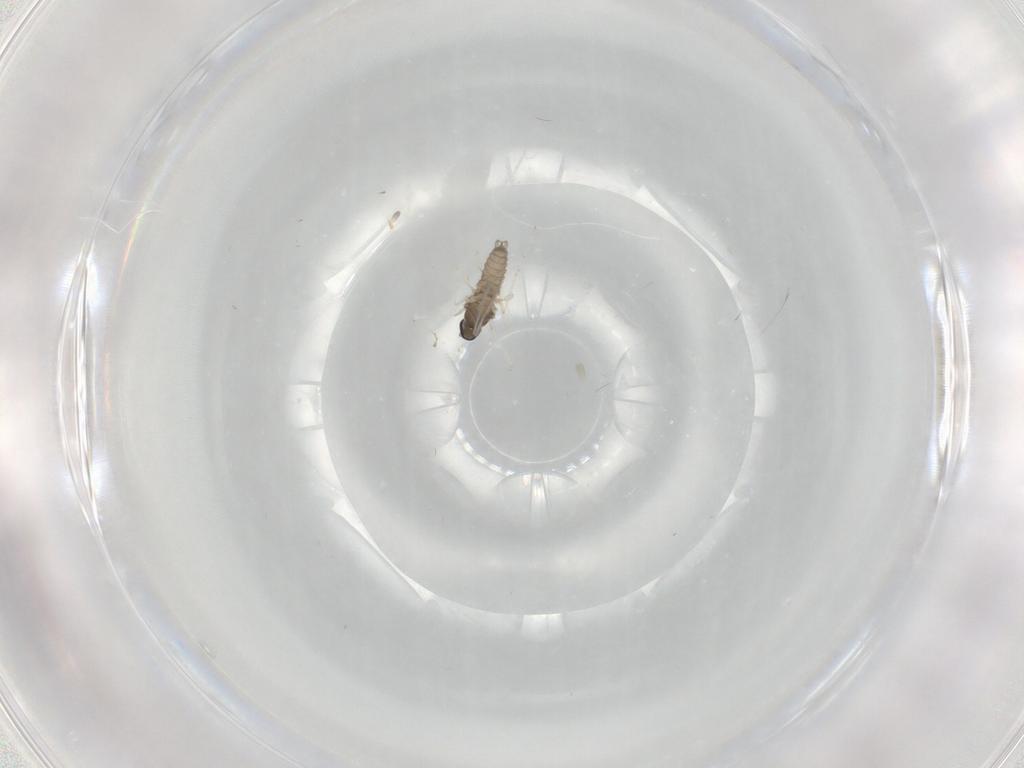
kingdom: Animalia
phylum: Arthropoda
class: Insecta
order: Diptera
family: Cecidomyiidae
